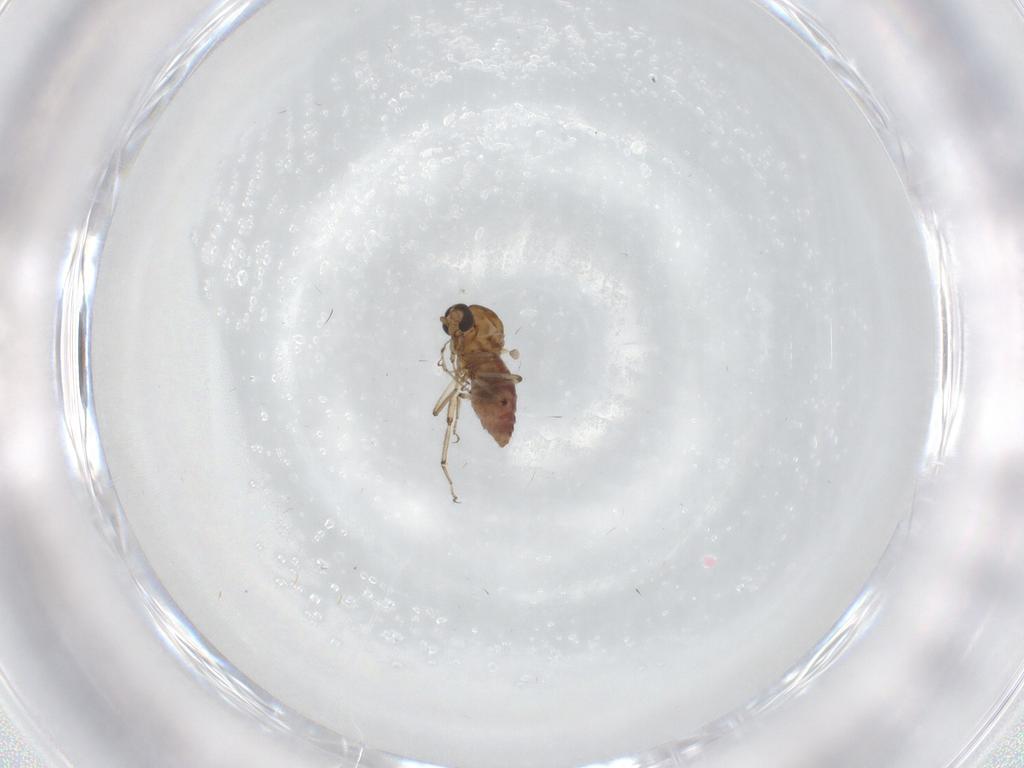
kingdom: Animalia
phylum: Arthropoda
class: Insecta
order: Diptera
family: Ceratopogonidae
